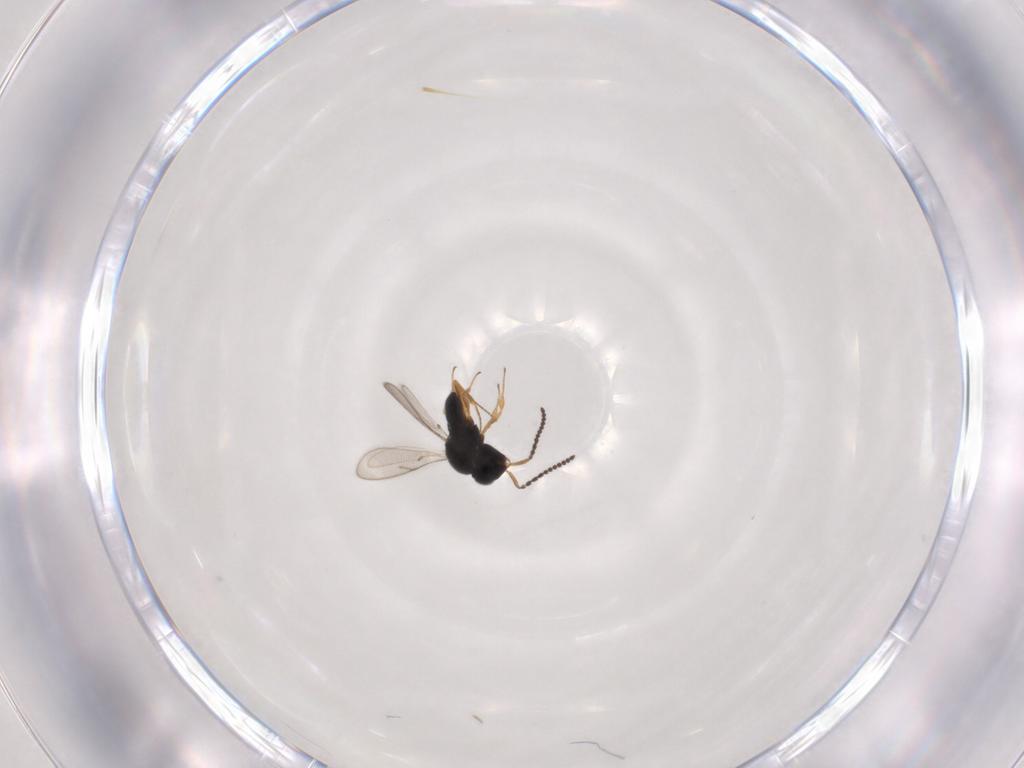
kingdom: Animalia
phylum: Arthropoda
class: Insecta
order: Hymenoptera
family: Scelionidae
